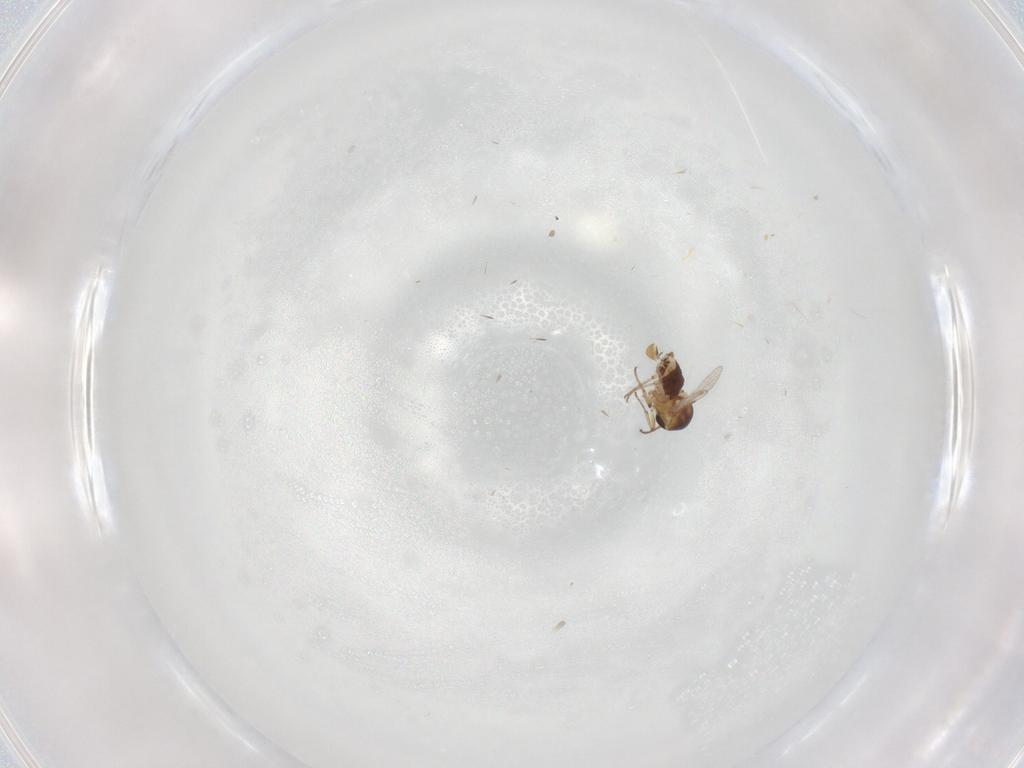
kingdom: Animalia
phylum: Arthropoda
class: Insecta
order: Diptera
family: Ceratopogonidae
